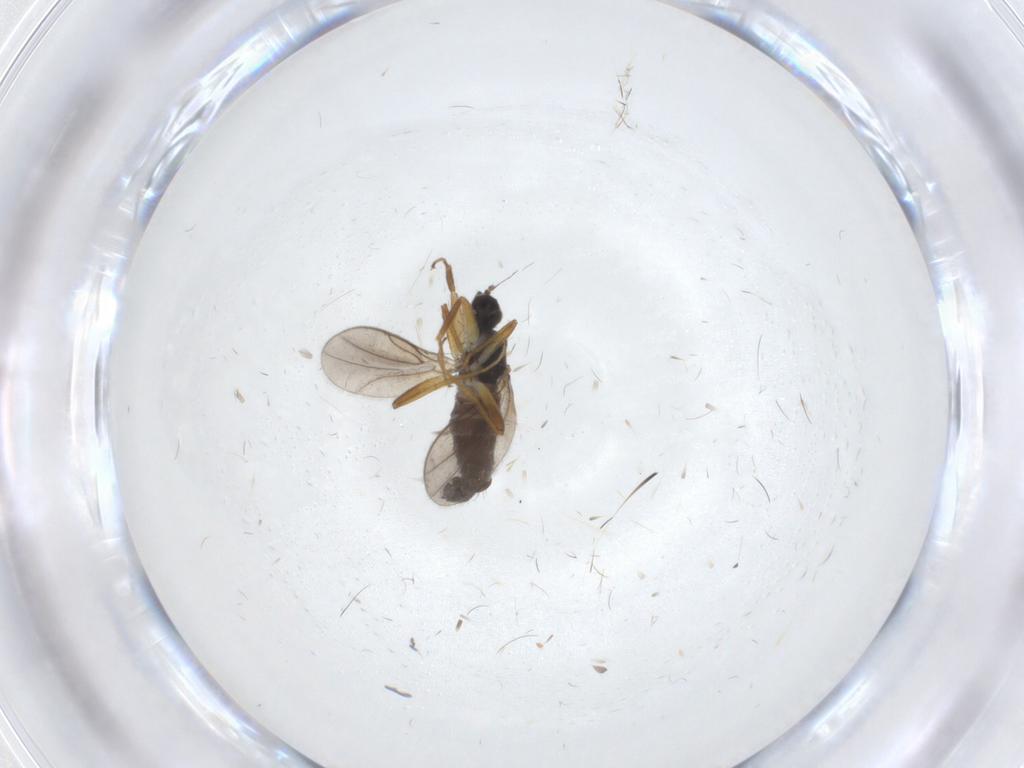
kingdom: Animalia
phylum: Arthropoda
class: Insecta
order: Diptera
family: Hybotidae
